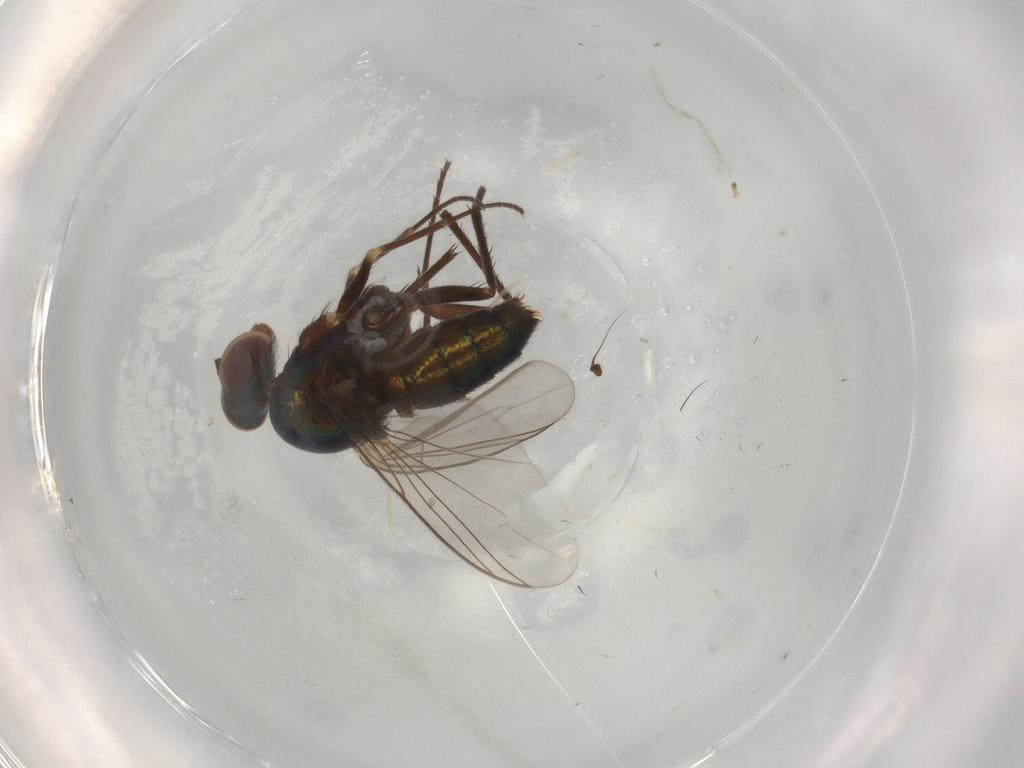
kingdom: Animalia
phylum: Arthropoda
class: Insecta
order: Diptera
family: Dolichopodidae
